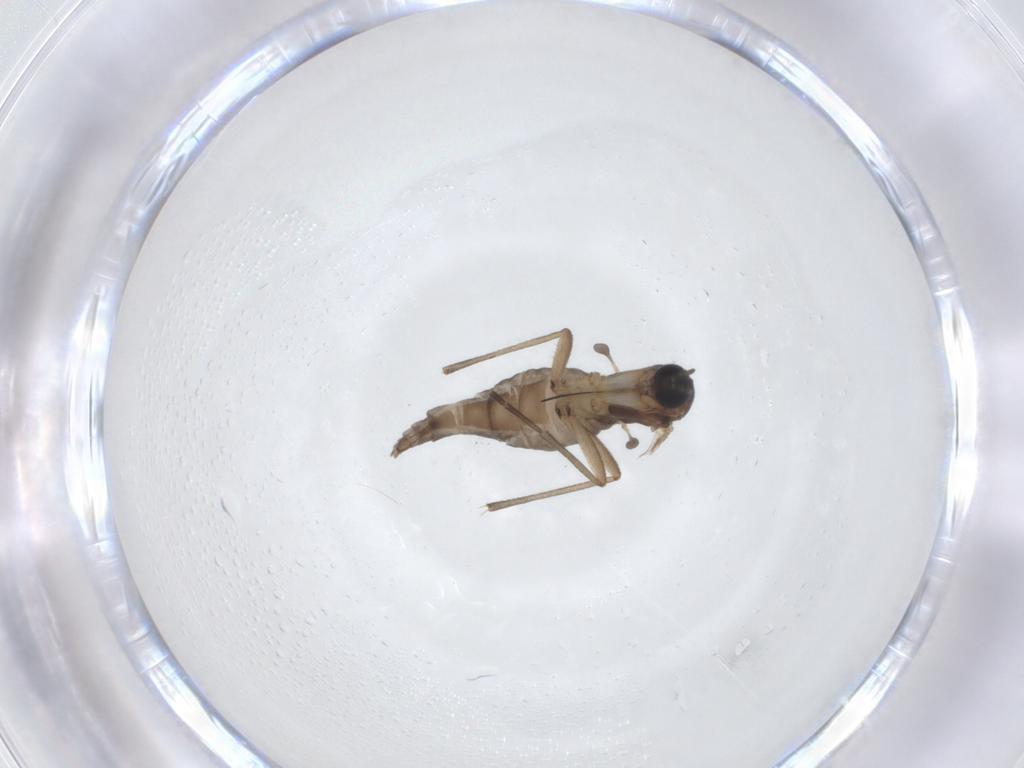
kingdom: Animalia
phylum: Arthropoda
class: Insecta
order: Diptera
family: Sciaridae
